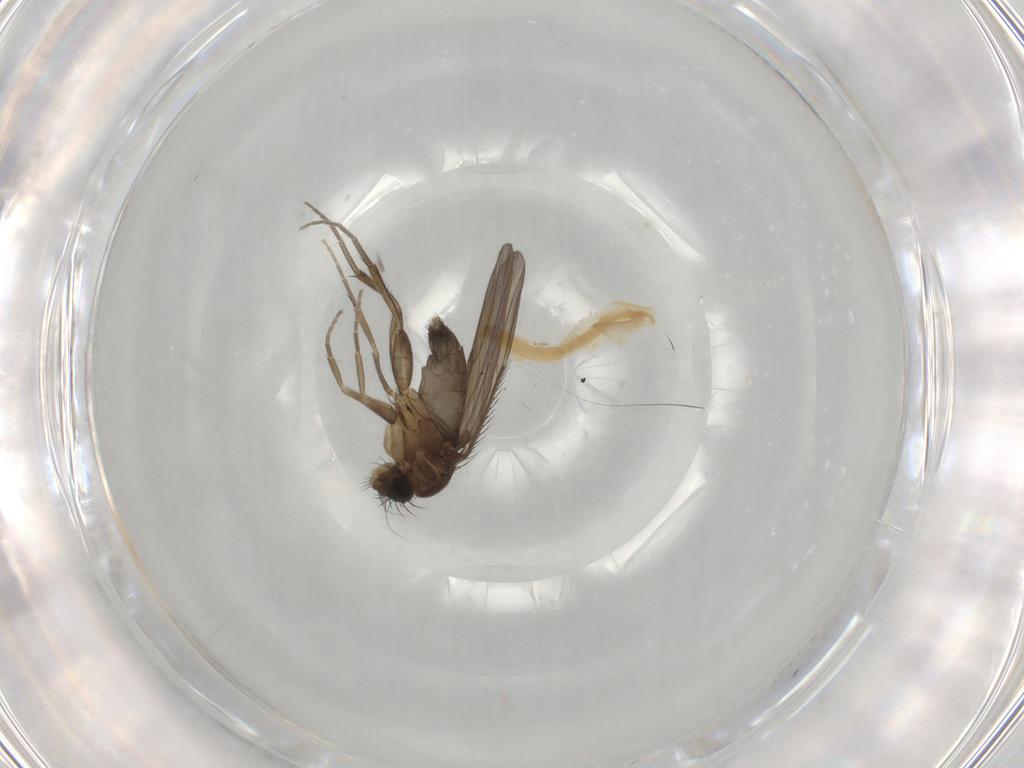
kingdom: Animalia
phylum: Arthropoda
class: Insecta
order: Diptera
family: Phoridae
